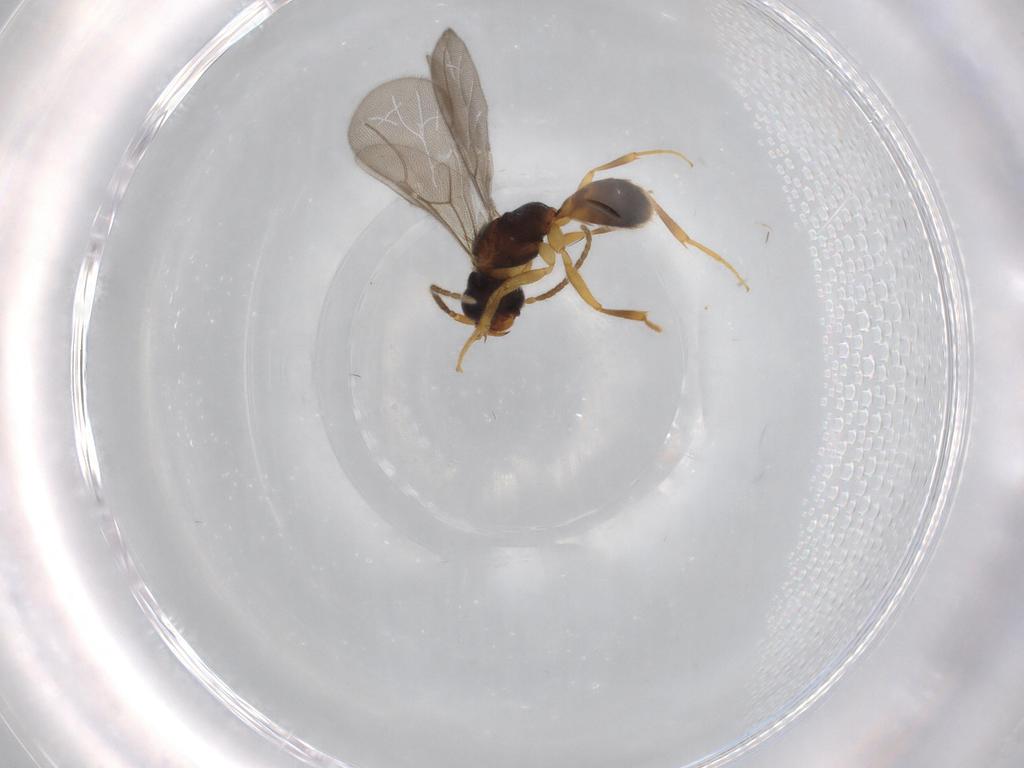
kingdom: Animalia
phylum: Arthropoda
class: Insecta
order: Hymenoptera
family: Bethylidae
